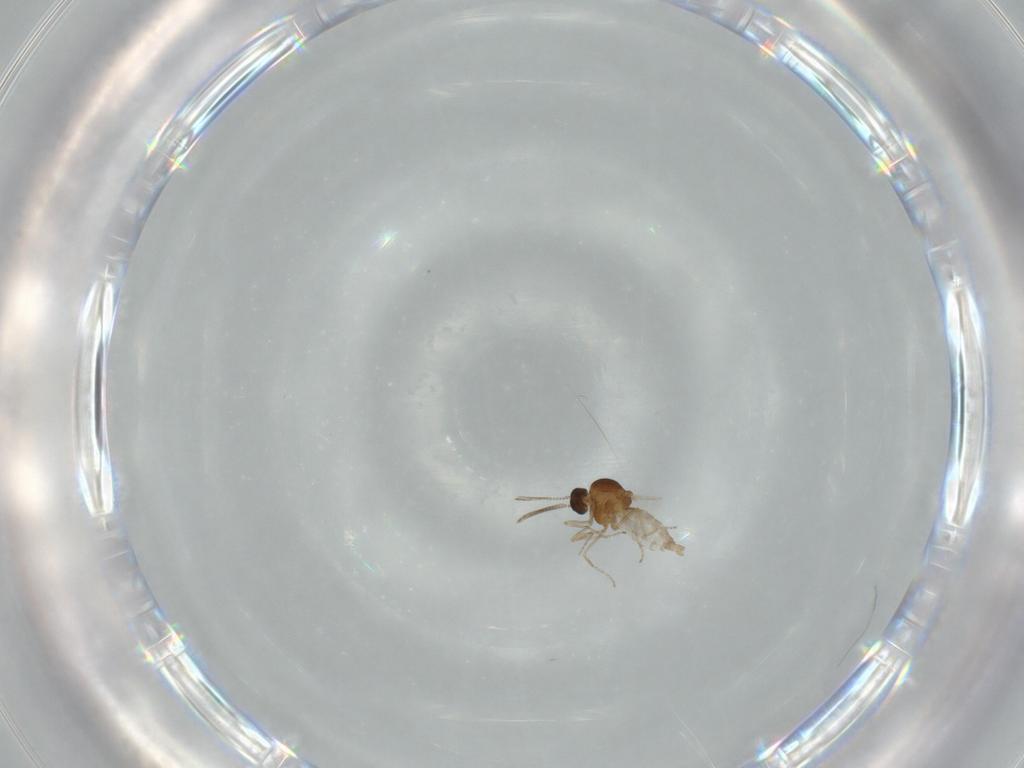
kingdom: Animalia
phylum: Arthropoda
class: Insecta
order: Diptera
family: Ceratopogonidae
